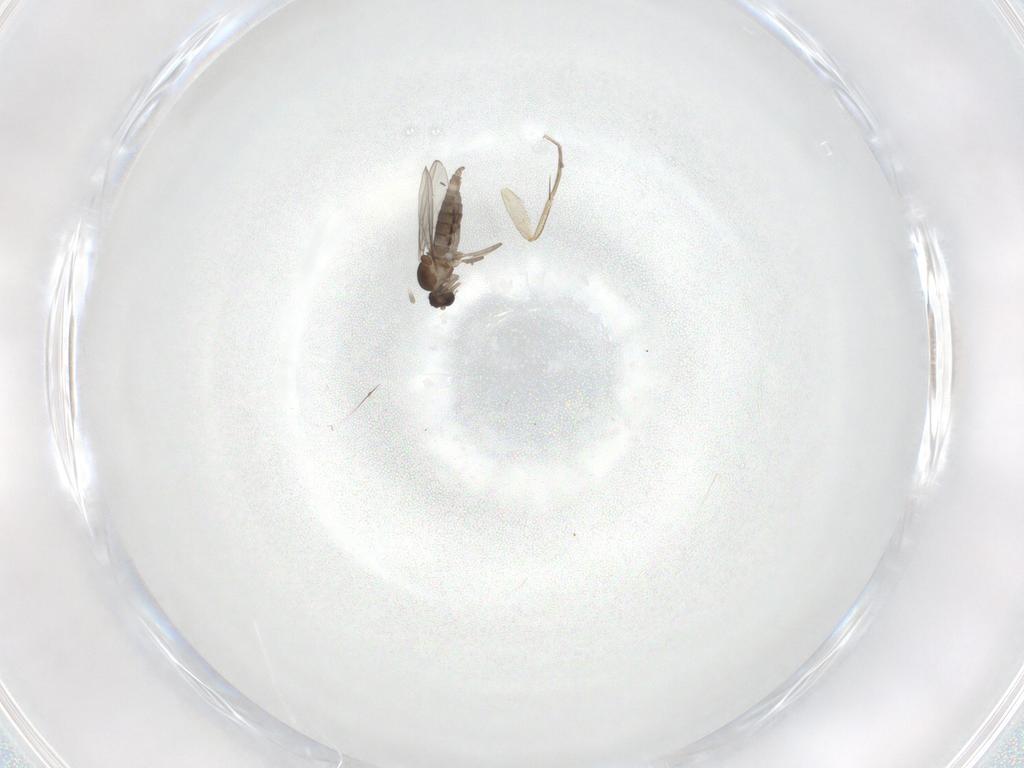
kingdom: Animalia
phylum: Arthropoda
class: Insecta
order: Diptera
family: Cecidomyiidae
